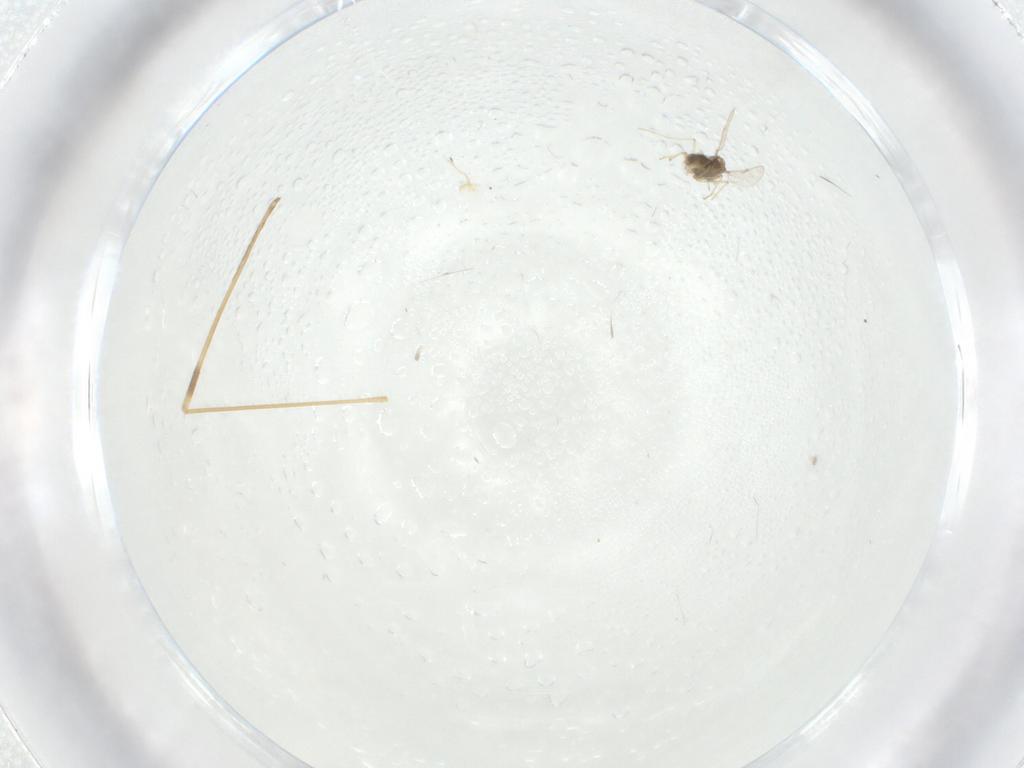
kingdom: Animalia
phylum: Arthropoda
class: Insecta
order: Diptera
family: Limoniidae
